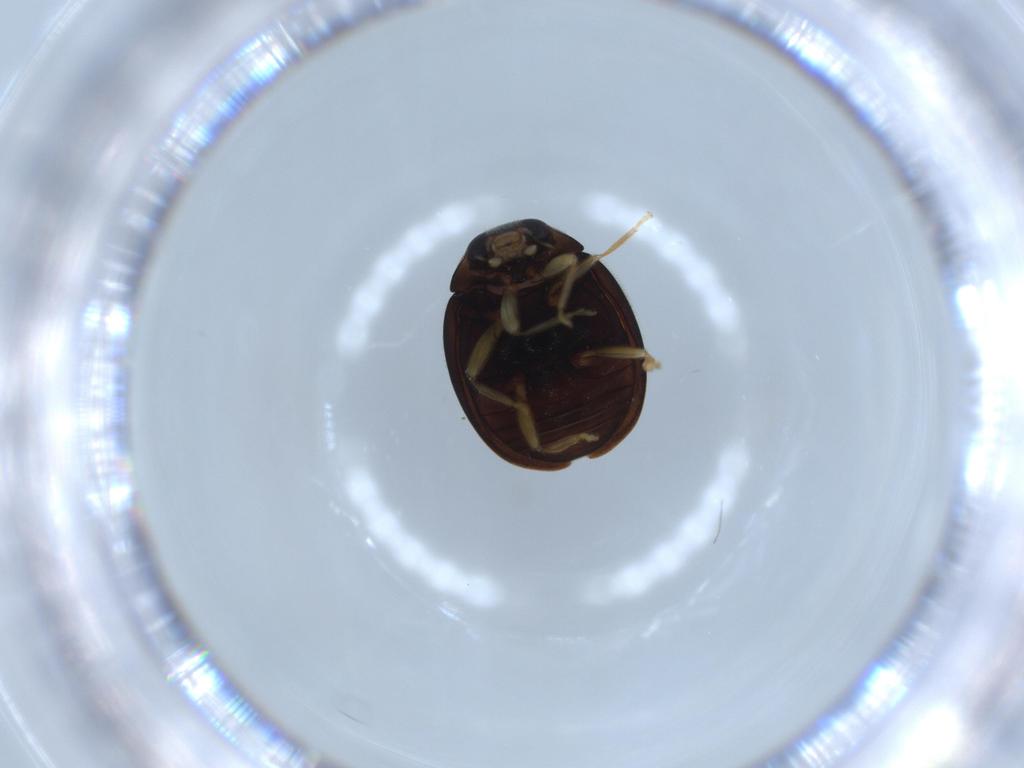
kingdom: Animalia
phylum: Arthropoda
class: Insecta
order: Coleoptera
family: Coccinellidae
